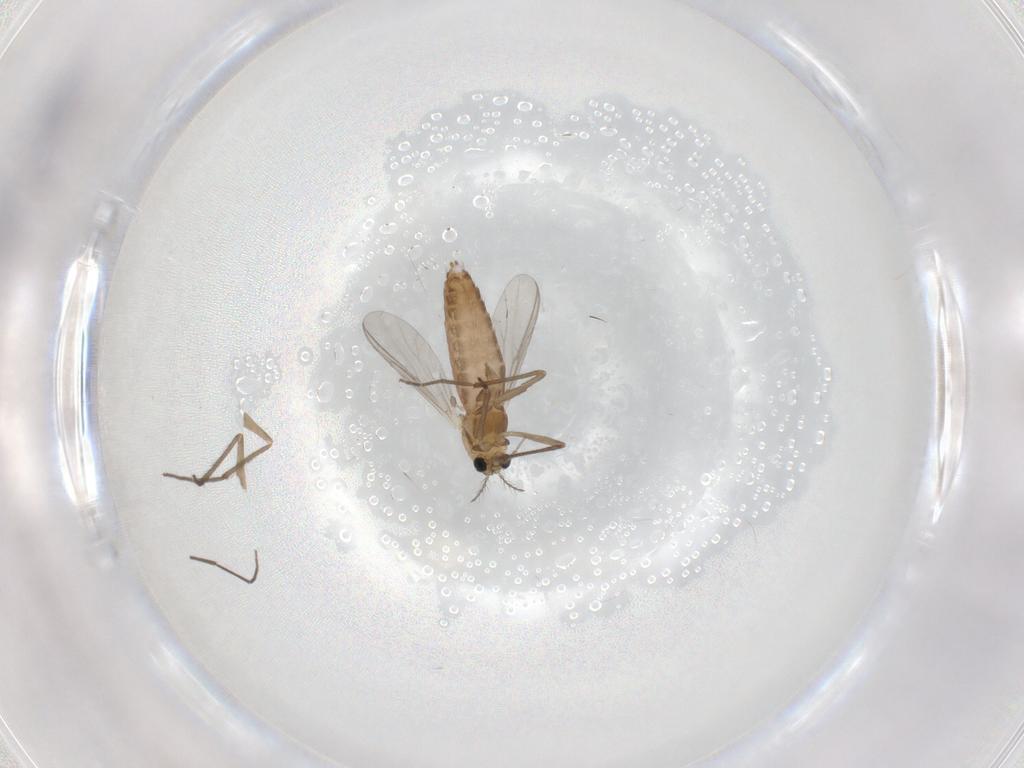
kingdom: Animalia
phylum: Arthropoda
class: Insecta
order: Diptera
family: Chironomidae
